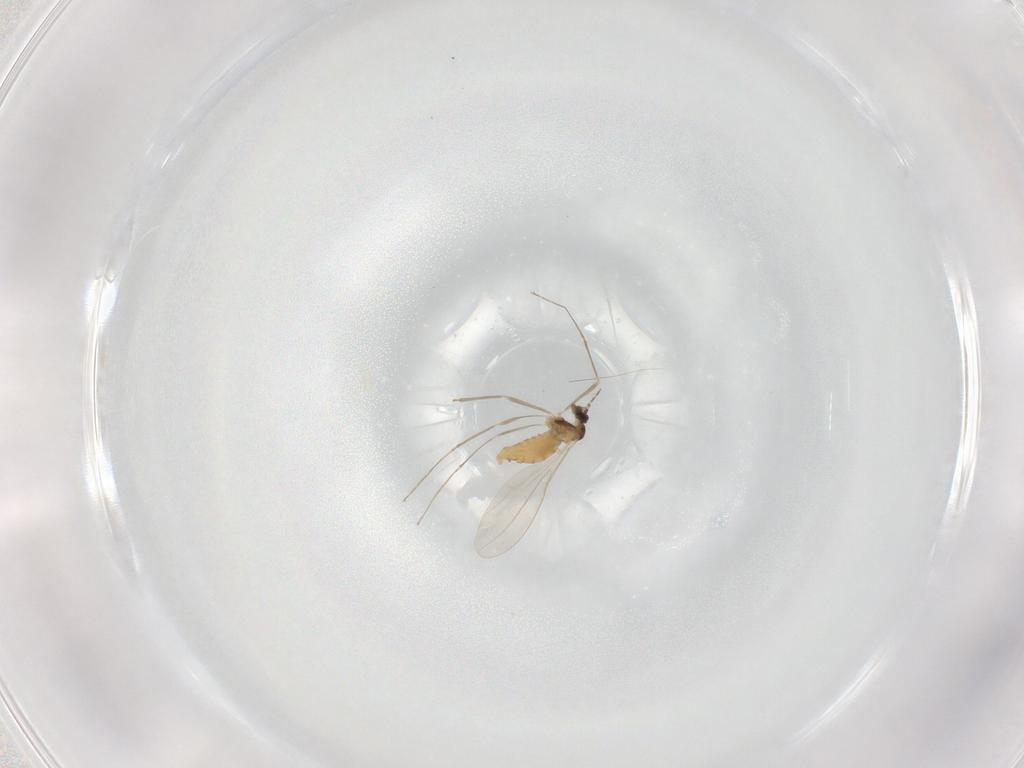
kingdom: Animalia
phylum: Arthropoda
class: Insecta
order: Diptera
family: Cecidomyiidae
